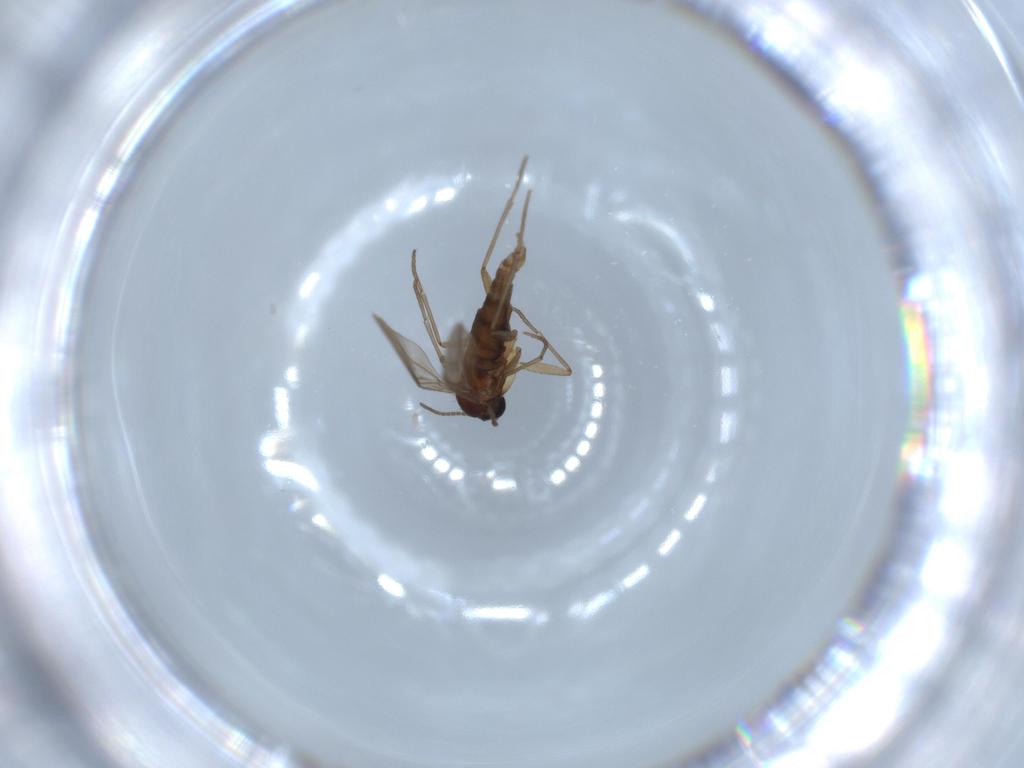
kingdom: Animalia
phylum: Arthropoda
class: Insecta
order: Diptera
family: Sciaridae
